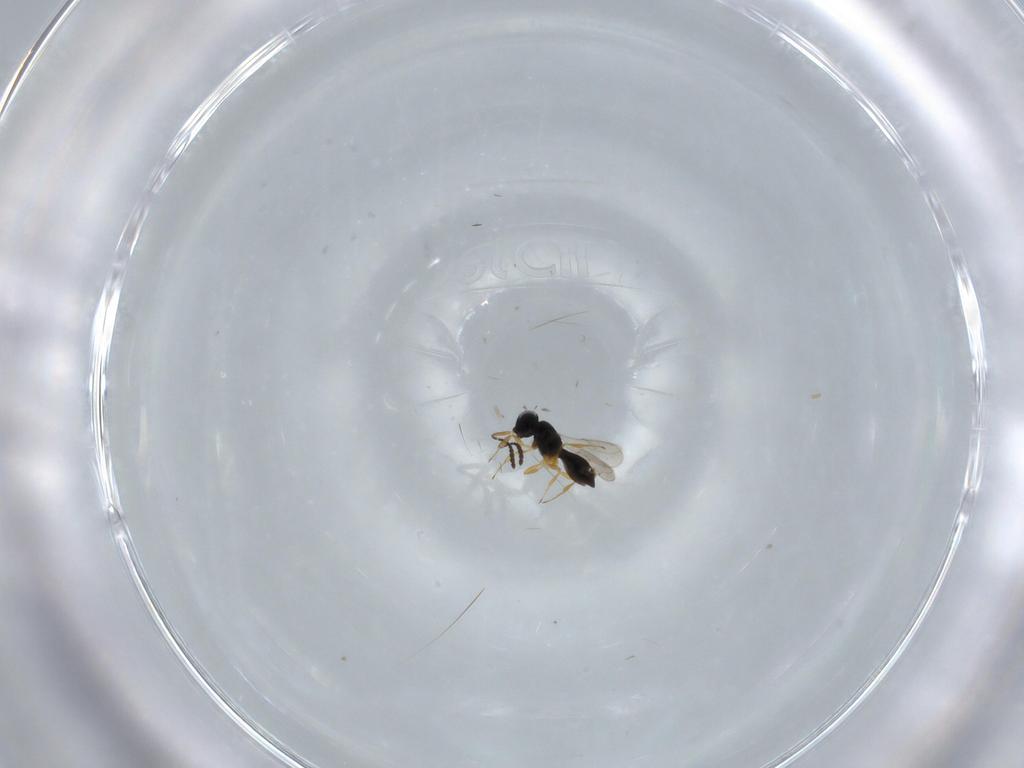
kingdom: Animalia
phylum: Arthropoda
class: Insecta
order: Hymenoptera
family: Scelionidae
